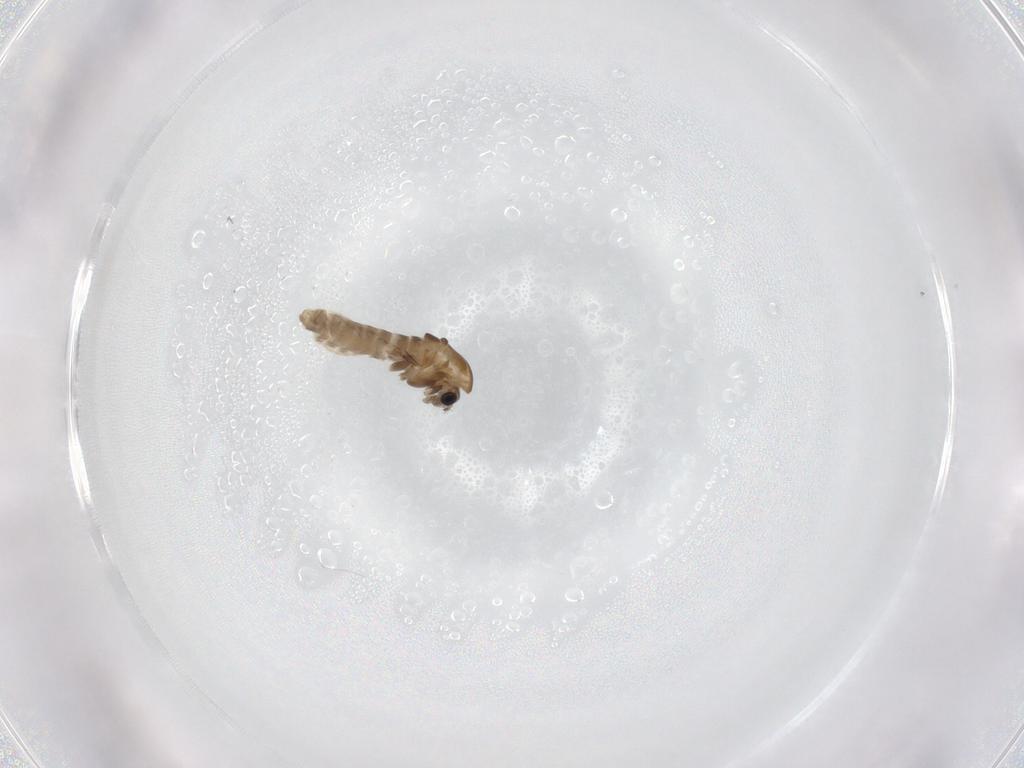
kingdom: Animalia
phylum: Arthropoda
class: Insecta
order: Diptera
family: Chironomidae
